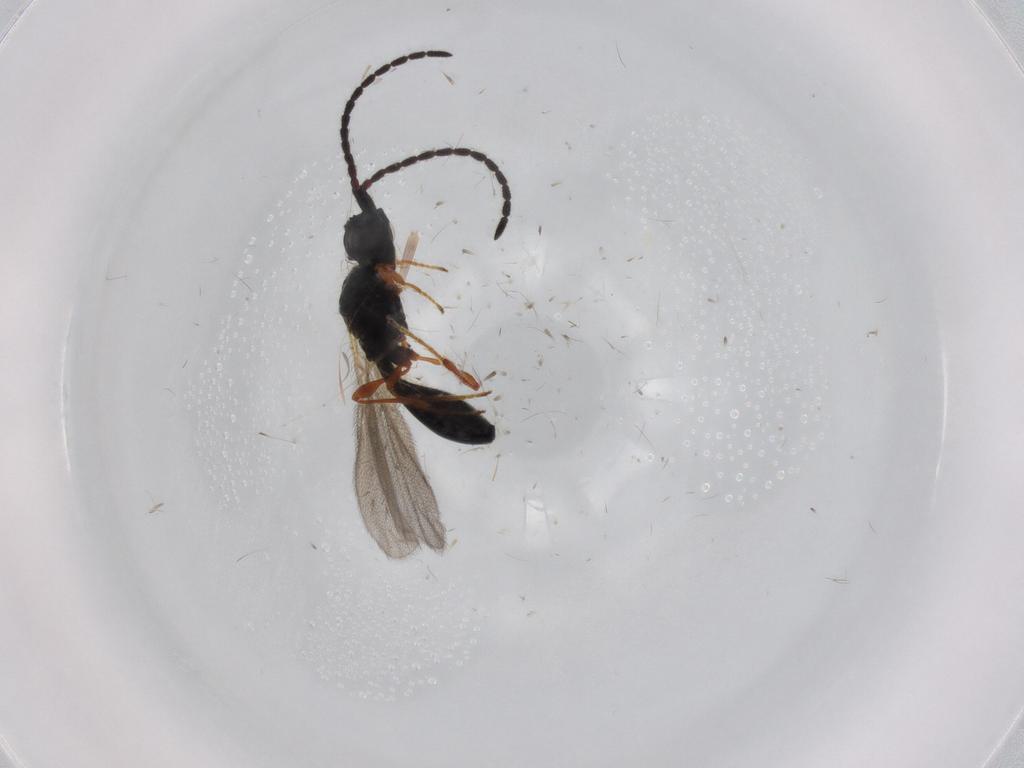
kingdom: Animalia
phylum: Arthropoda
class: Insecta
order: Hymenoptera
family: Diapriidae
